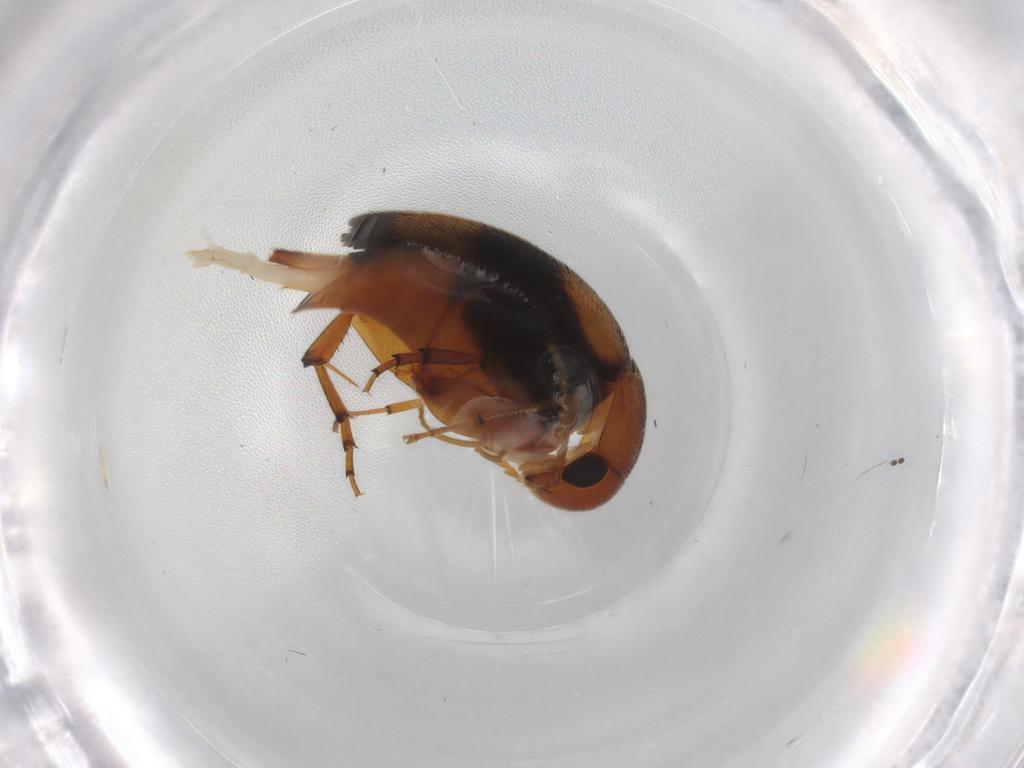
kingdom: Animalia
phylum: Arthropoda
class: Insecta
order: Coleoptera
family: Mordellidae
